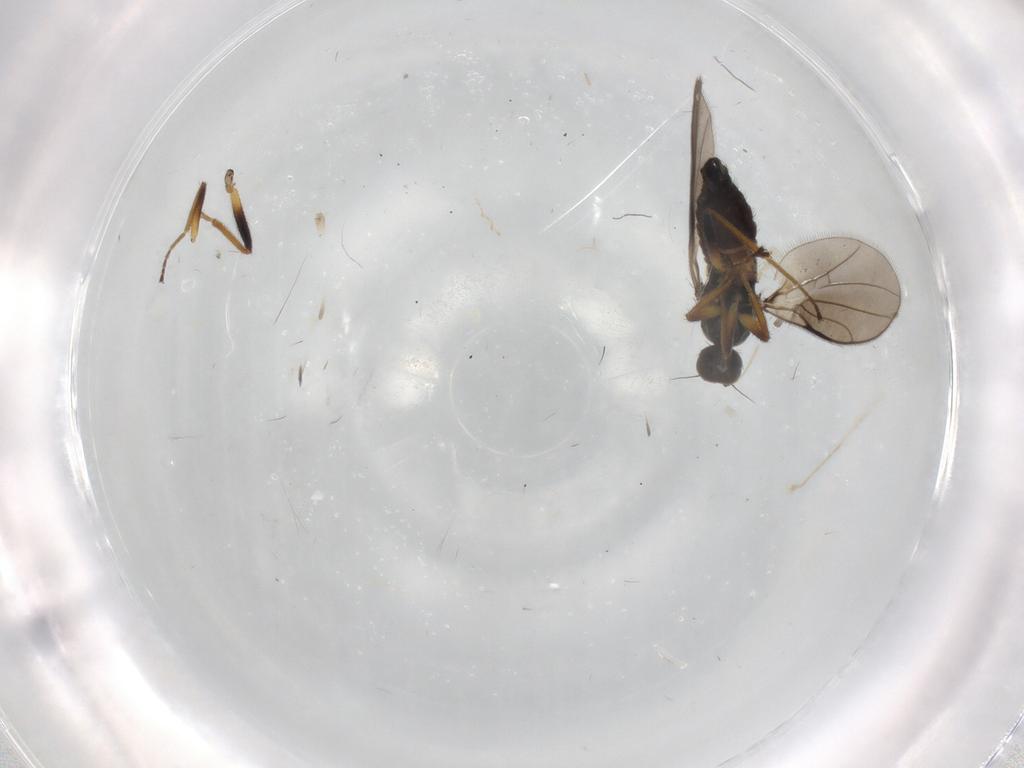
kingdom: Animalia
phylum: Arthropoda
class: Insecta
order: Diptera
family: Hybotidae
